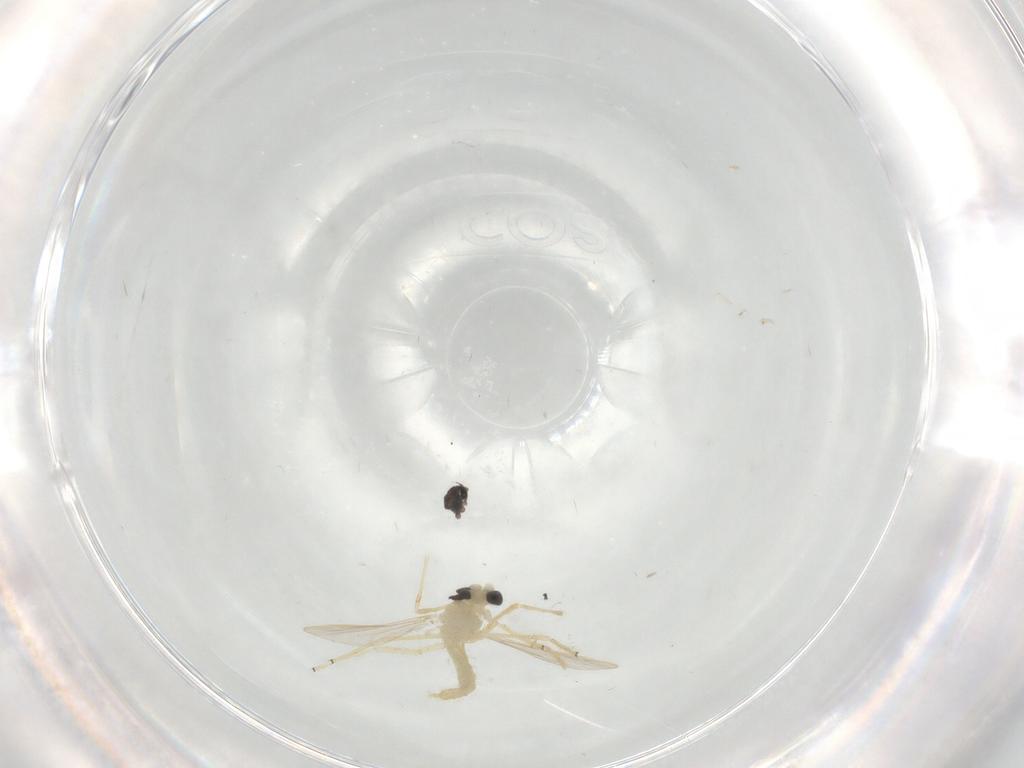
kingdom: Animalia
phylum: Arthropoda
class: Insecta
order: Diptera
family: Chironomidae
